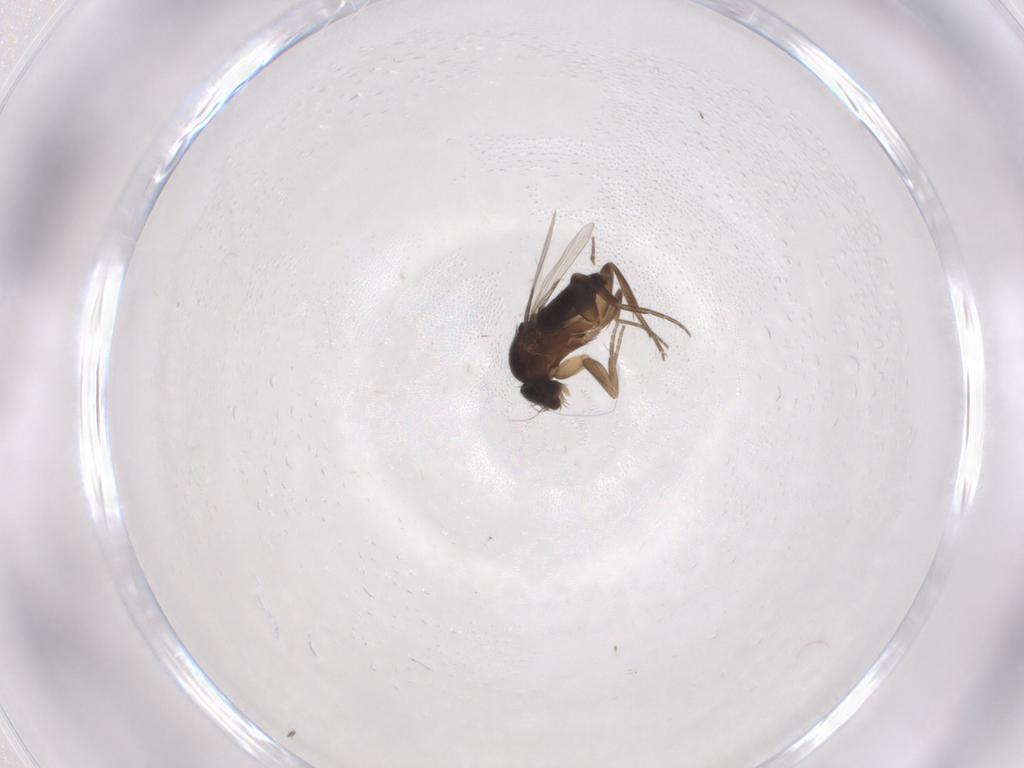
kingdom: Animalia
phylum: Arthropoda
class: Insecta
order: Diptera
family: Phoridae
